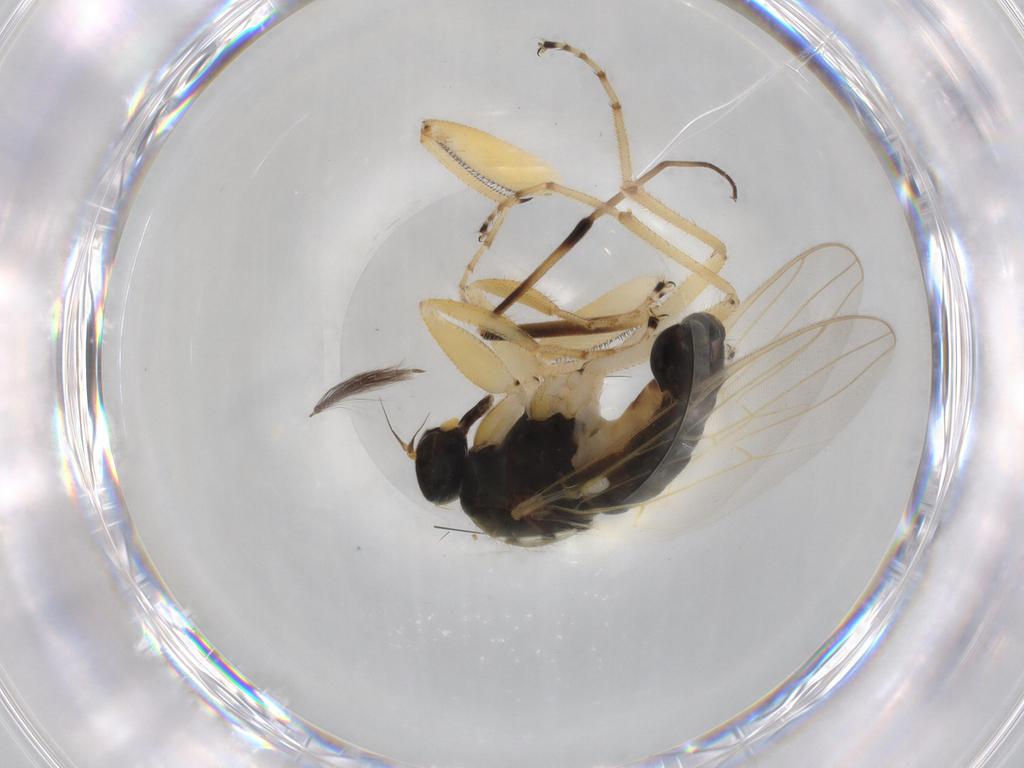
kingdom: Animalia
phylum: Arthropoda
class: Insecta
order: Diptera
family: Hybotidae
